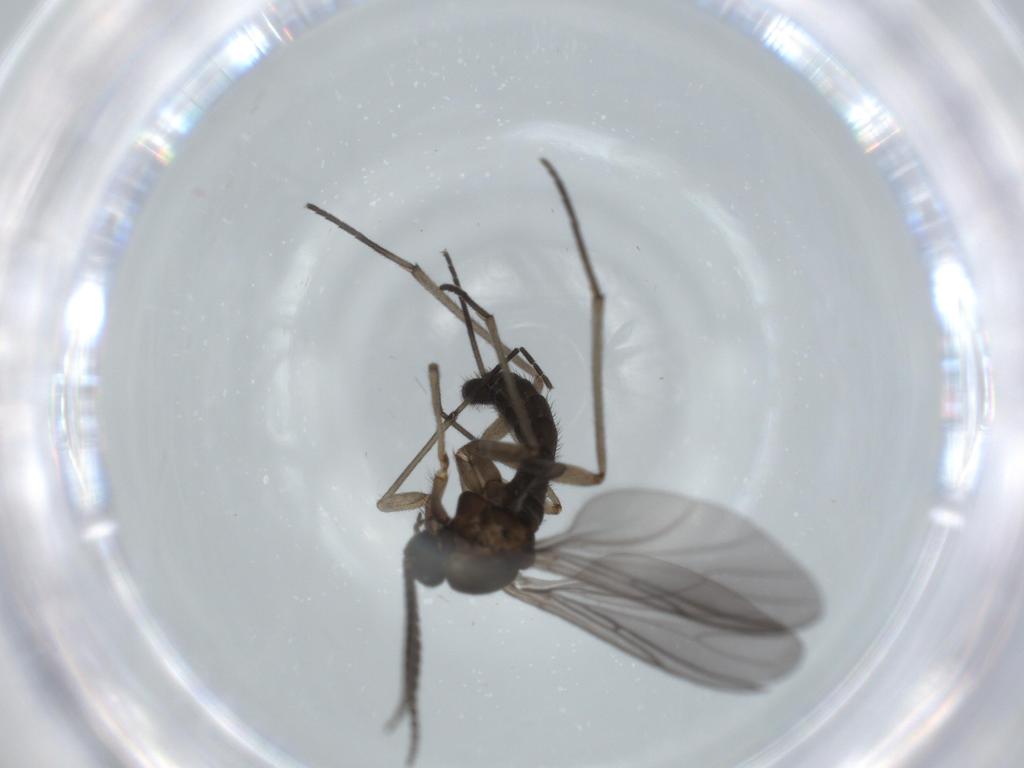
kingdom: Animalia
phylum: Arthropoda
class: Insecta
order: Diptera
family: Sciaridae
